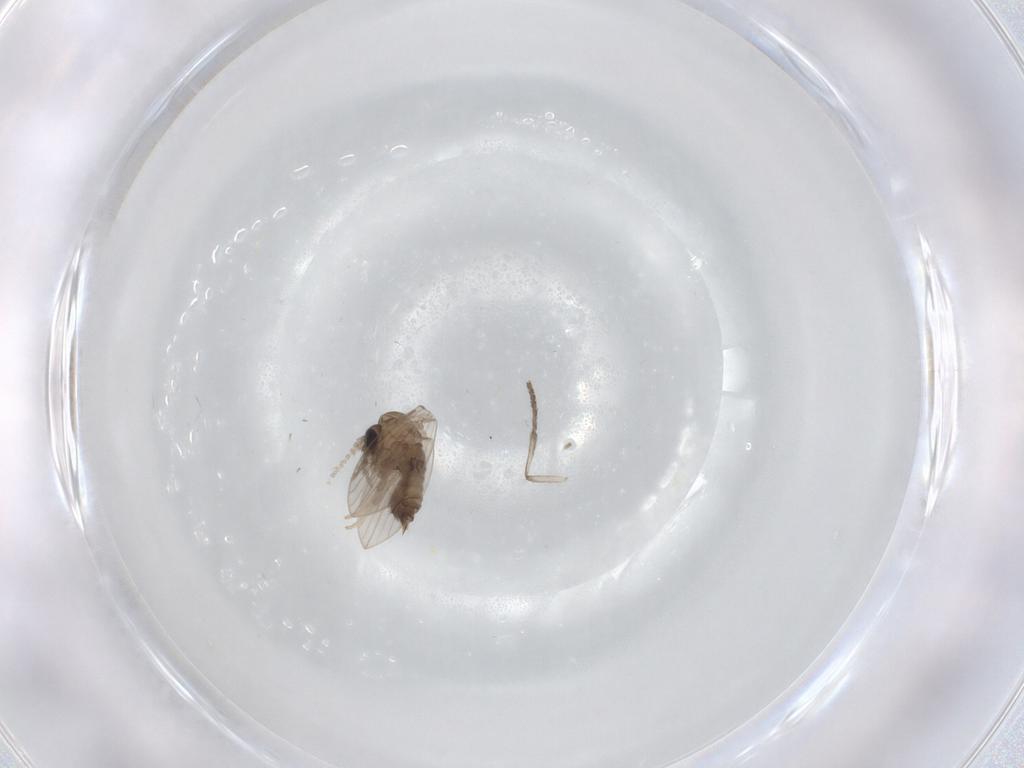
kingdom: Animalia
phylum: Arthropoda
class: Insecta
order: Diptera
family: Psychodidae
